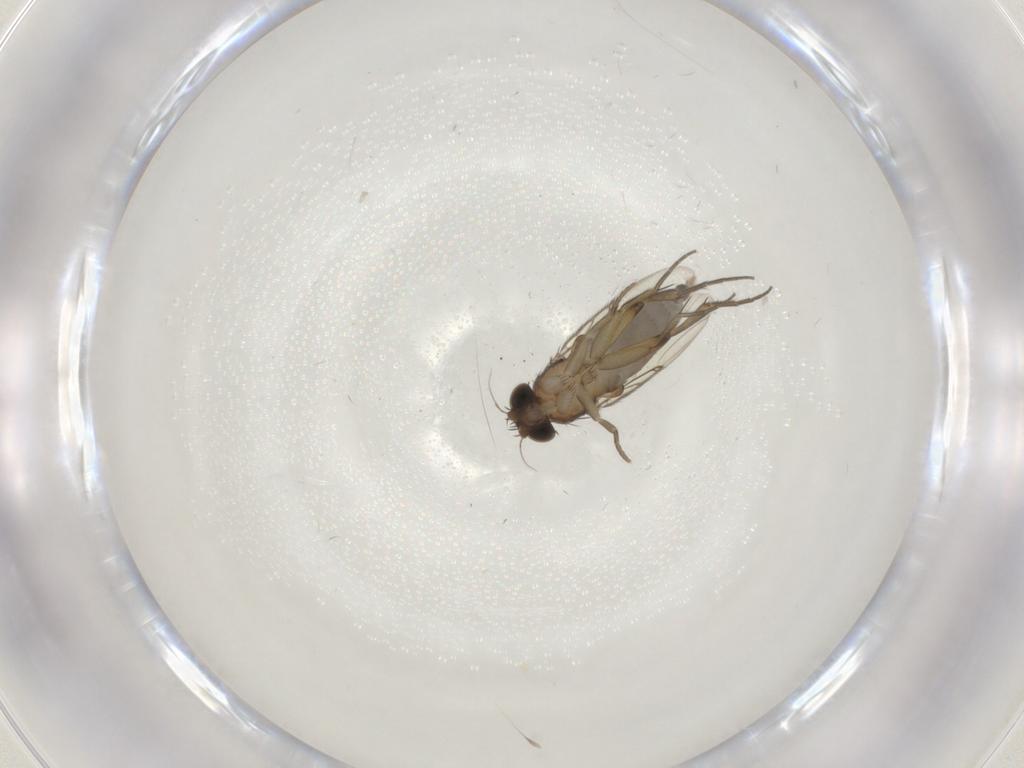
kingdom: Animalia
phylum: Arthropoda
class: Insecta
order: Diptera
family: Phoridae
